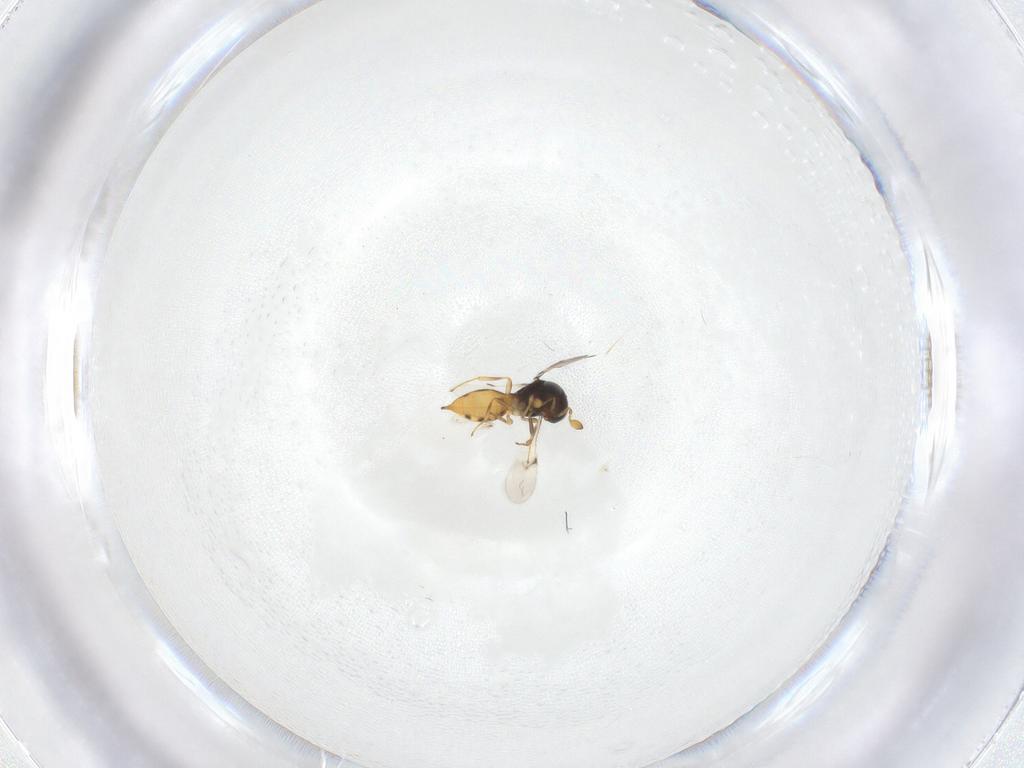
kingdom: Animalia
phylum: Arthropoda
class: Insecta
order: Hymenoptera
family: Scelionidae
